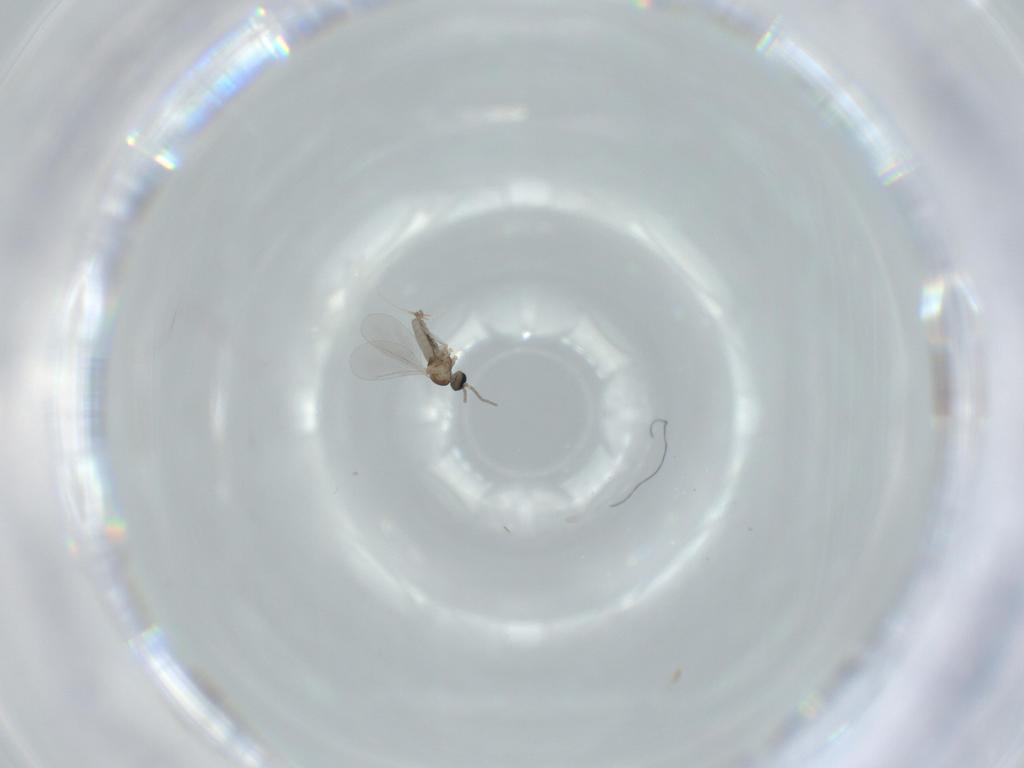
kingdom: Animalia
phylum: Arthropoda
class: Insecta
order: Diptera
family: Cecidomyiidae
